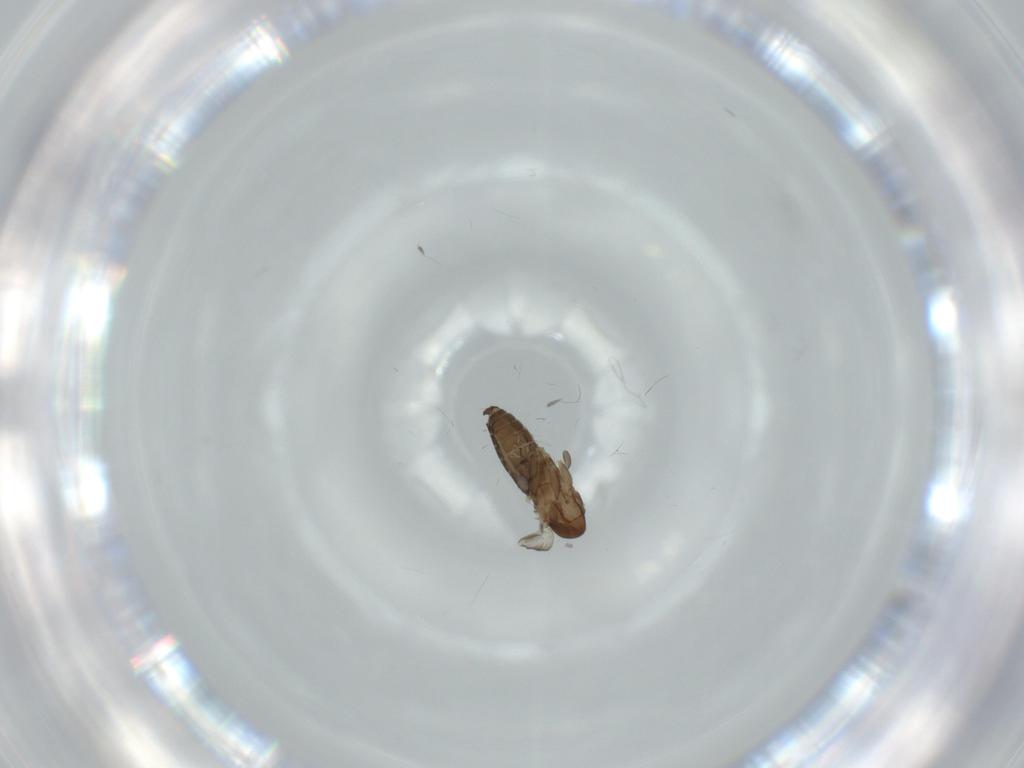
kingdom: Animalia
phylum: Arthropoda
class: Insecta
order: Diptera
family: Psychodidae
